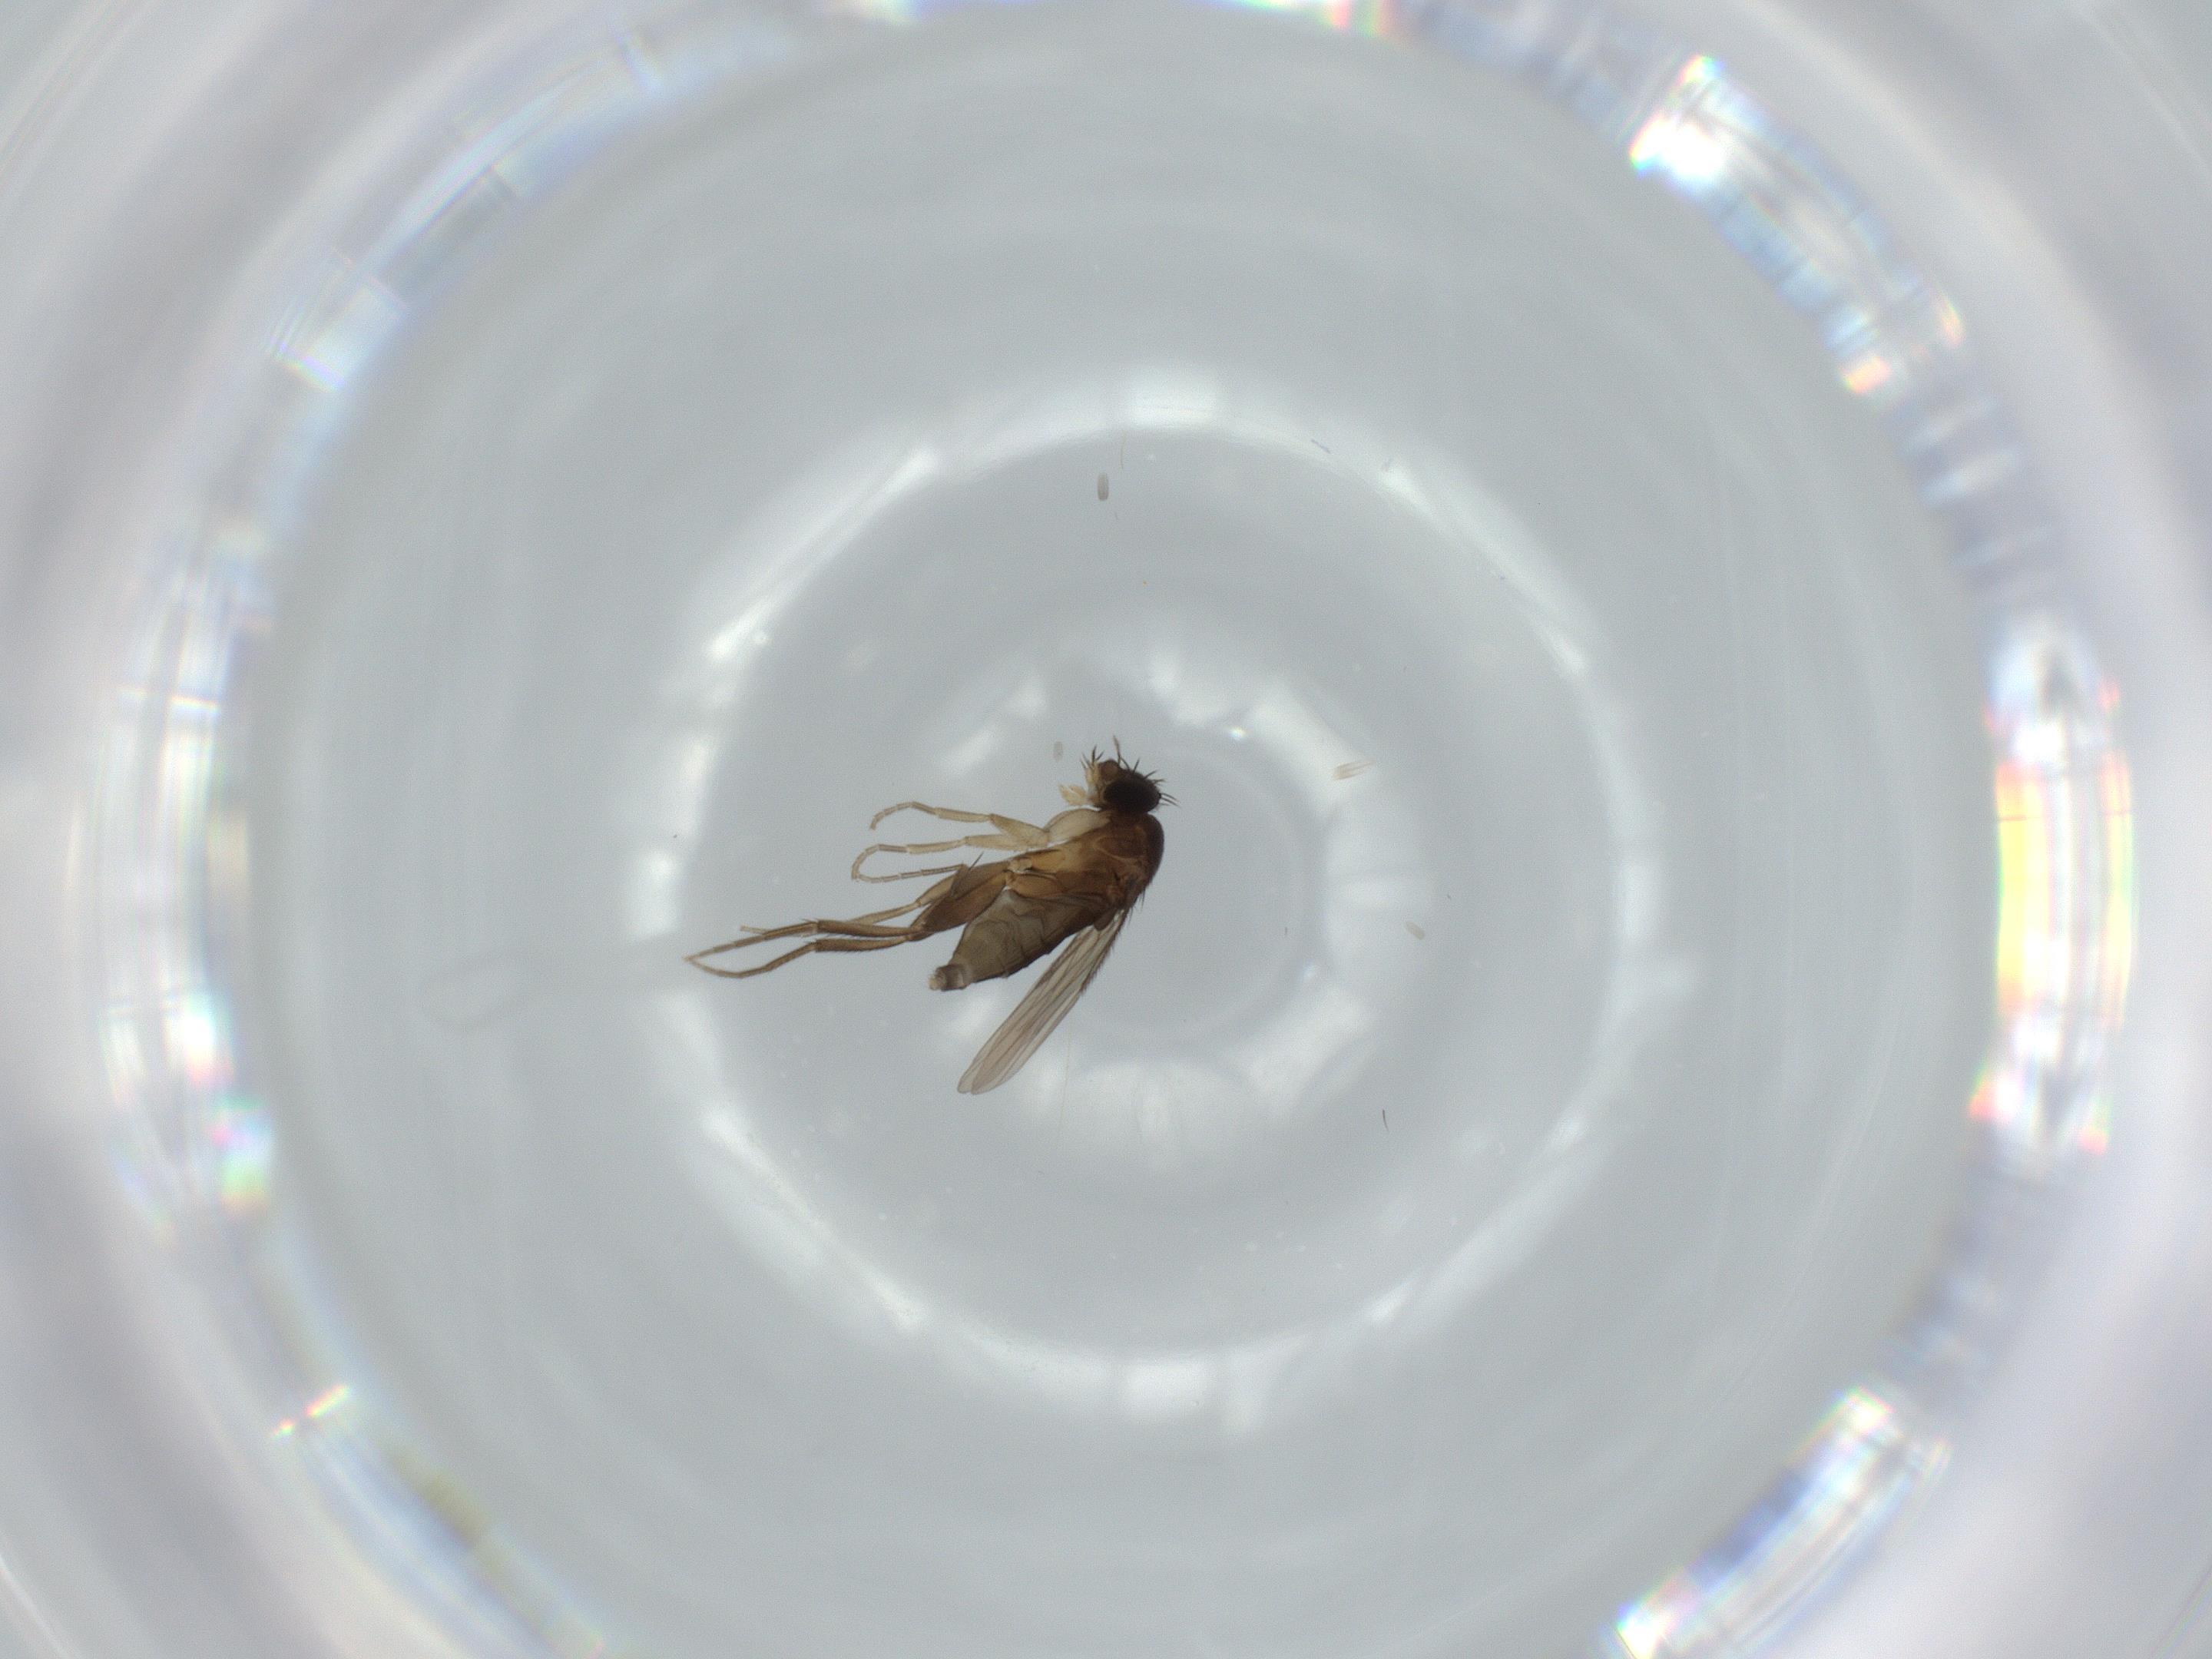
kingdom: Animalia
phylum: Arthropoda
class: Insecta
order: Diptera
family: Phoridae
